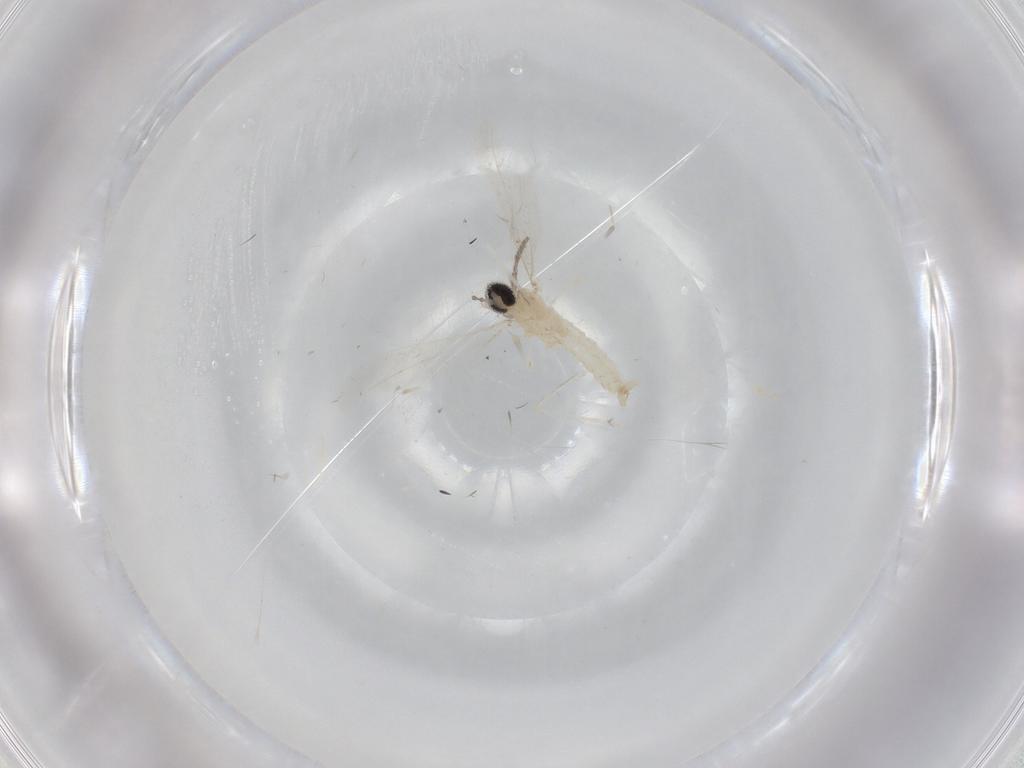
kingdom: Animalia
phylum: Arthropoda
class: Insecta
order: Diptera
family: Cecidomyiidae
